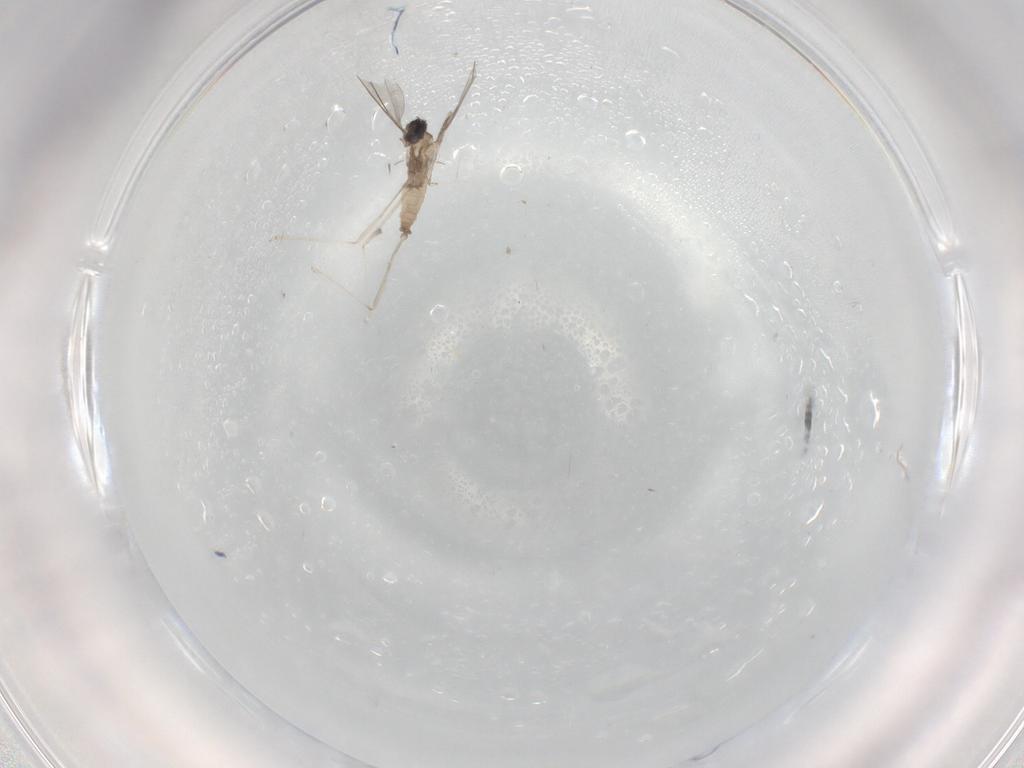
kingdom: Animalia
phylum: Arthropoda
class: Insecta
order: Diptera
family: Cecidomyiidae
